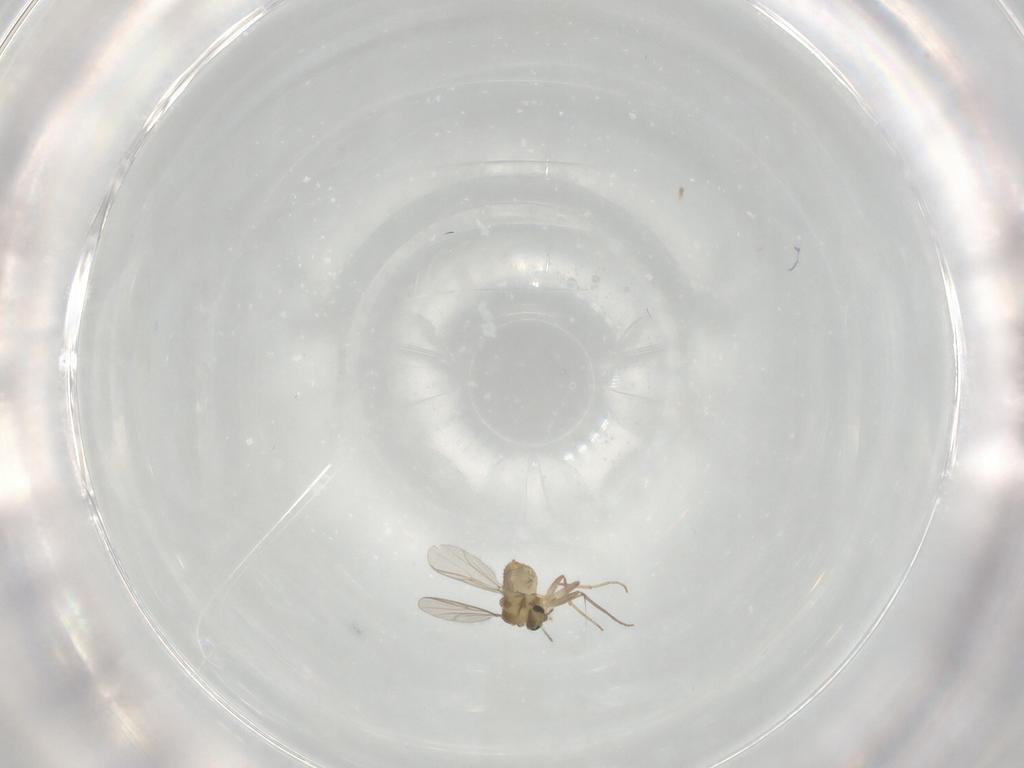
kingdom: Animalia
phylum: Arthropoda
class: Insecta
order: Diptera
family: Chironomidae
